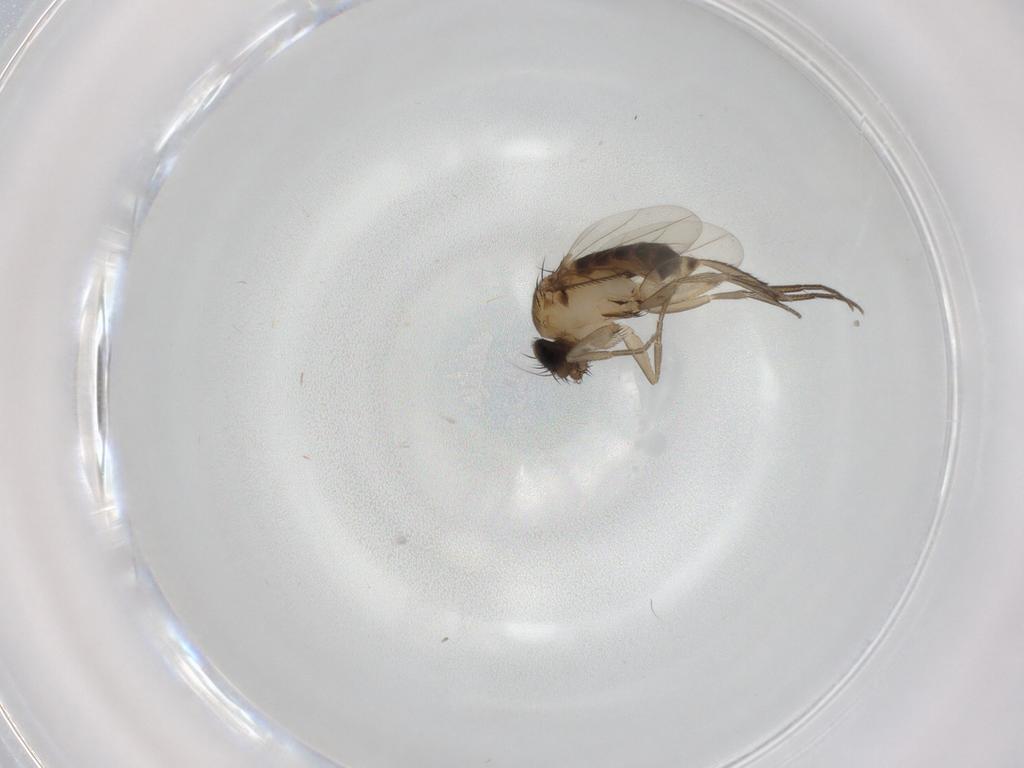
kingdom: Animalia
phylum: Arthropoda
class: Insecta
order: Diptera
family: Phoridae
